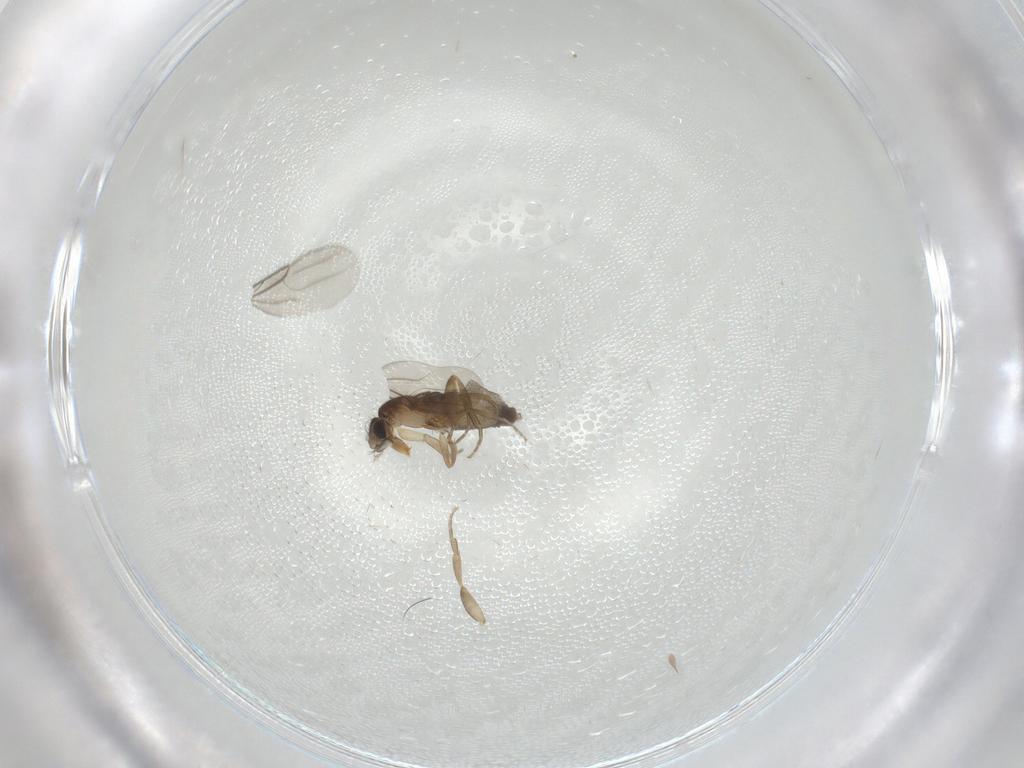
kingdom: Animalia
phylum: Arthropoda
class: Insecta
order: Diptera
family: Phoridae
